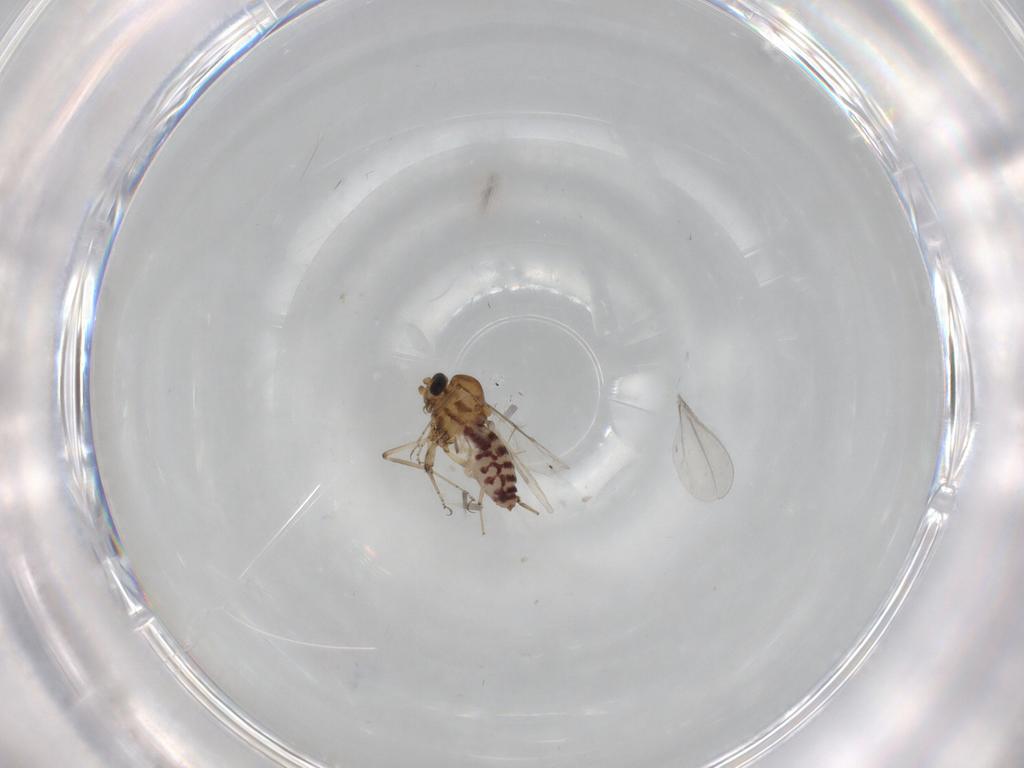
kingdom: Animalia
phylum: Arthropoda
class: Insecta
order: Diptera
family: Ceratopogonidae
